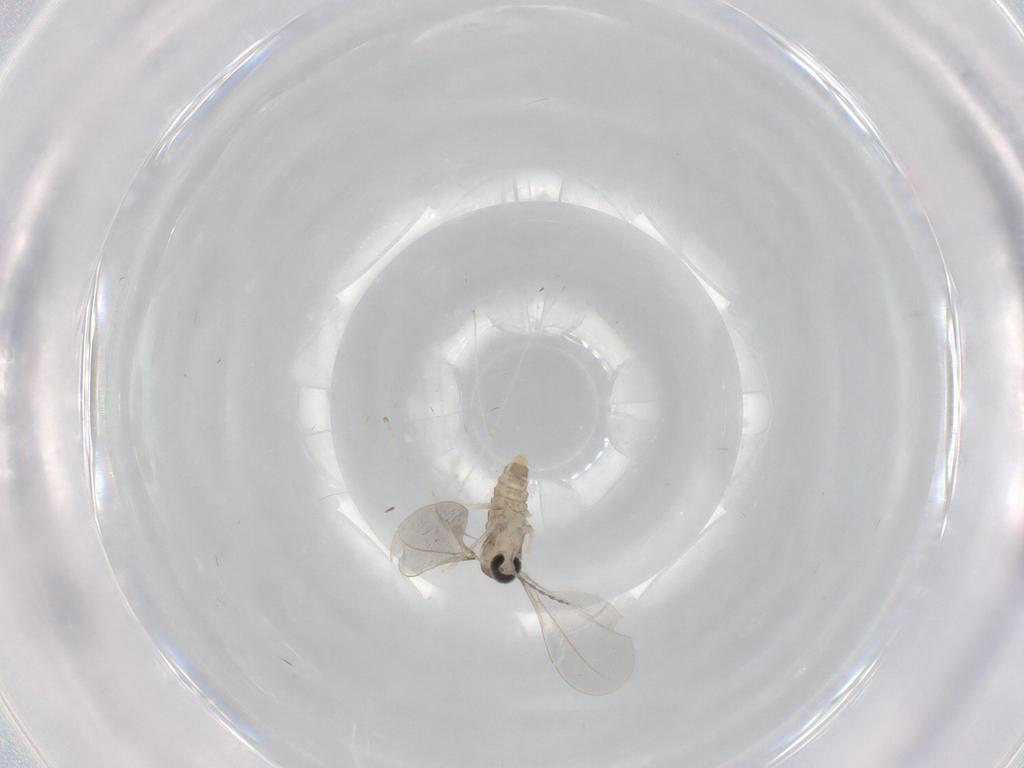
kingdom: Animalia
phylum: Arthropoda
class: Insecta
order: Diptera
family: Cecidomyiidae
